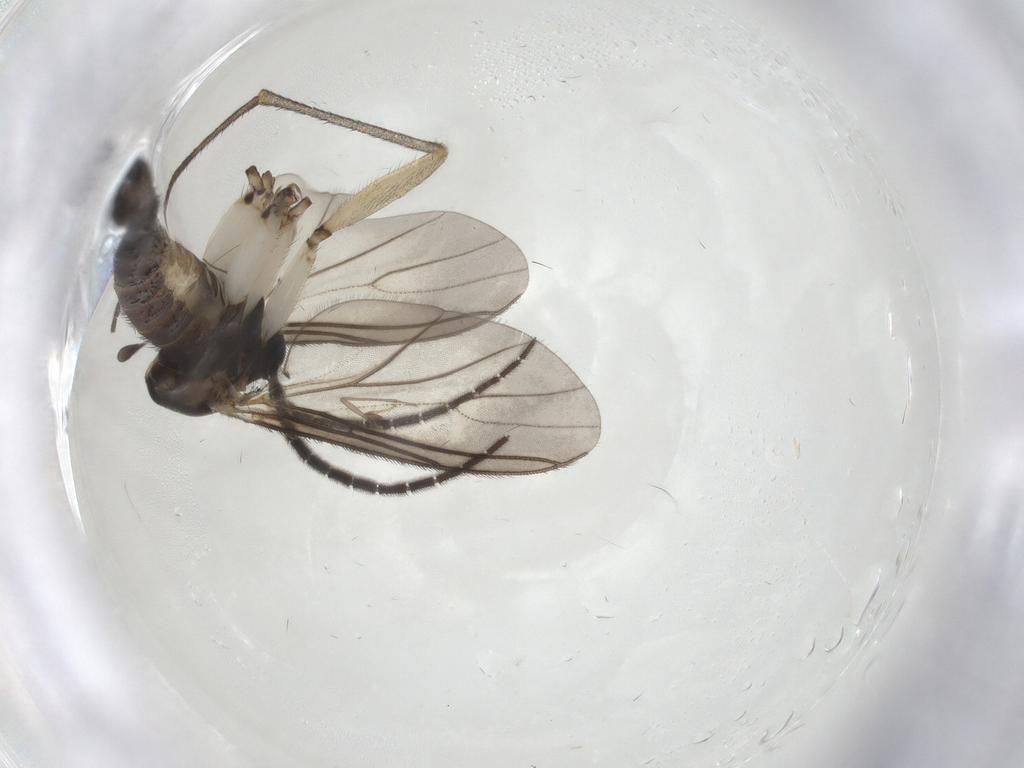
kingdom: Animalia
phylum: Arthropoda
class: Insecta
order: Diptera
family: Sciaridae
